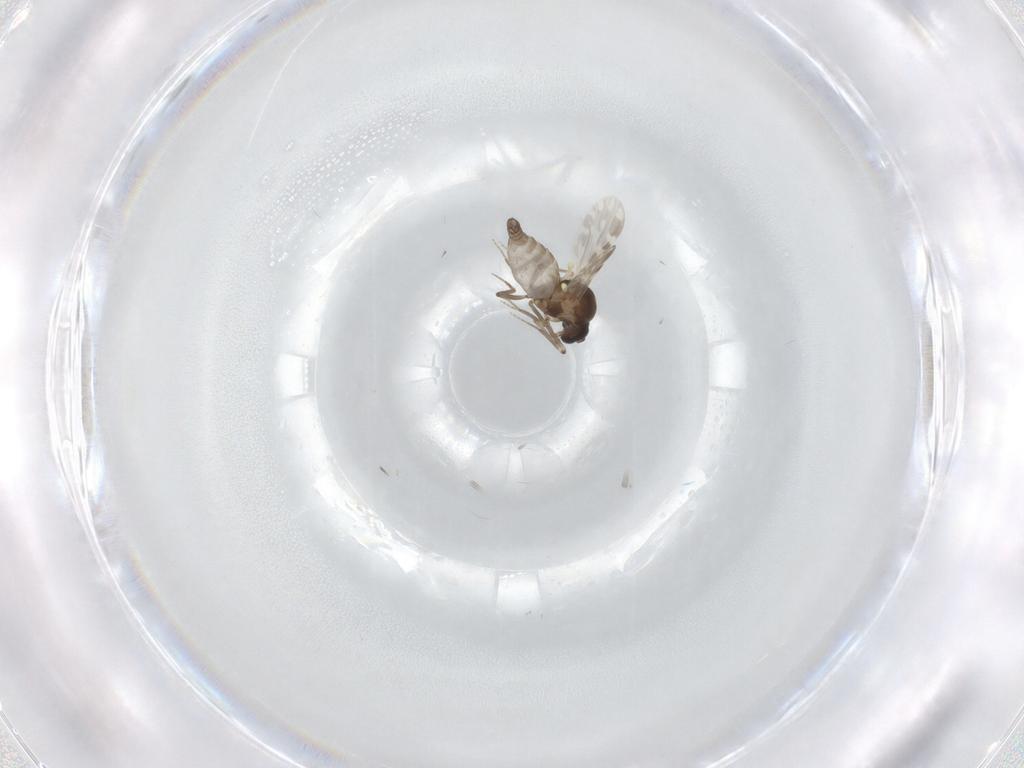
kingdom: Animalia
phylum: Arthropoda
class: Insecta
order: Diptera
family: Ceratopogonidae
